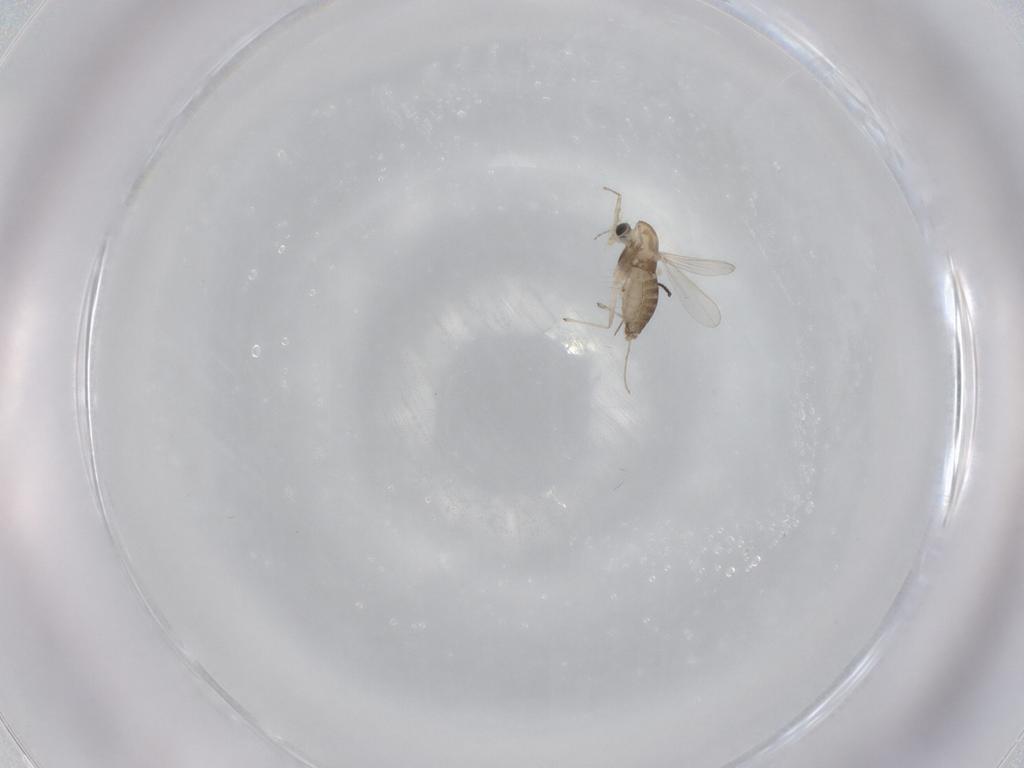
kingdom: Animalia
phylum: Arthropoda
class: Insecta
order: Diptera
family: Chironomidae
